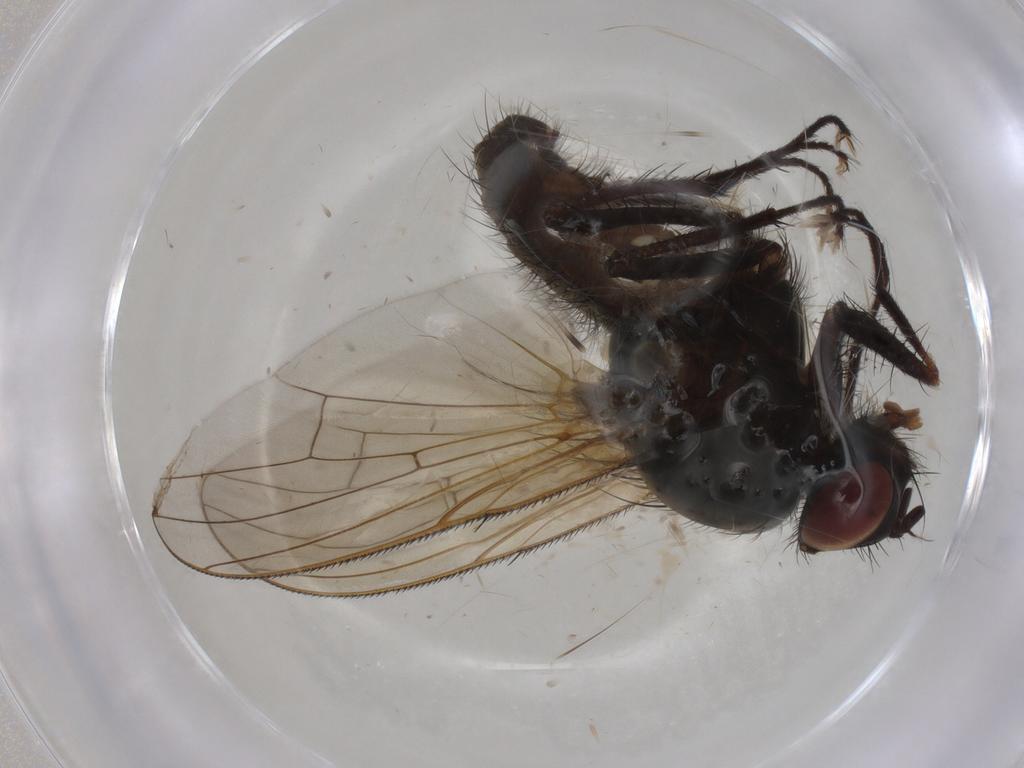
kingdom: Animalia
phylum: Arthropoda
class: Insecta
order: Diptera
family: Anthomyiidae
